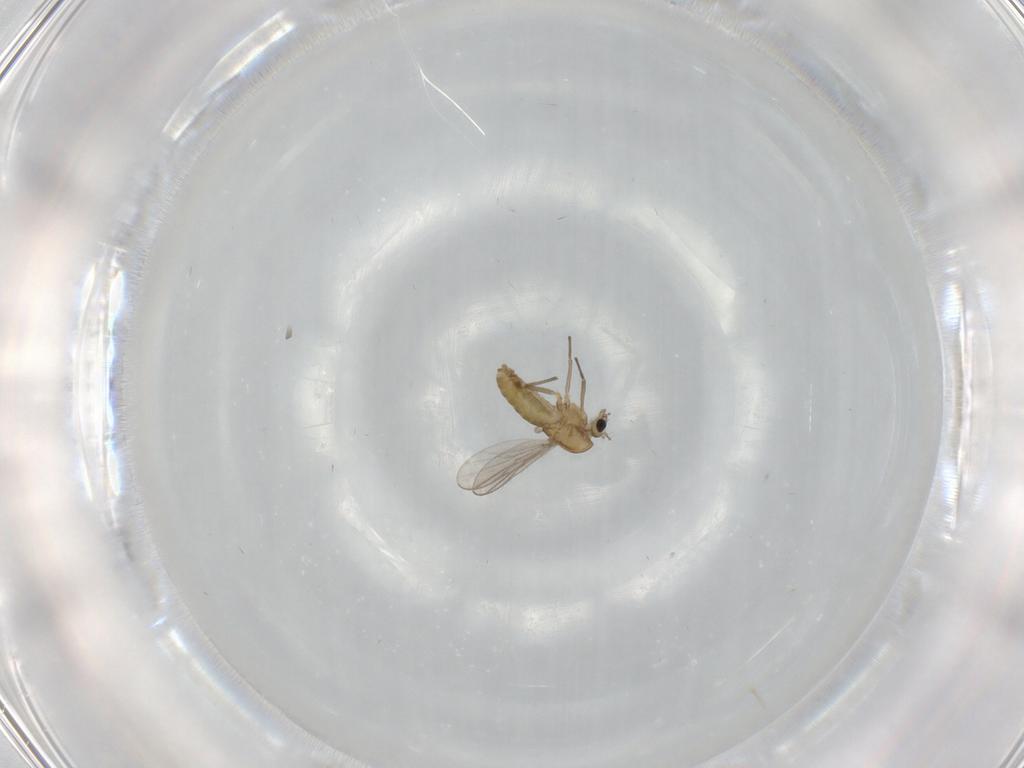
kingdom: Animalia
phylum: Arthropoda
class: Insecta
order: Diptera
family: Chironomidae
